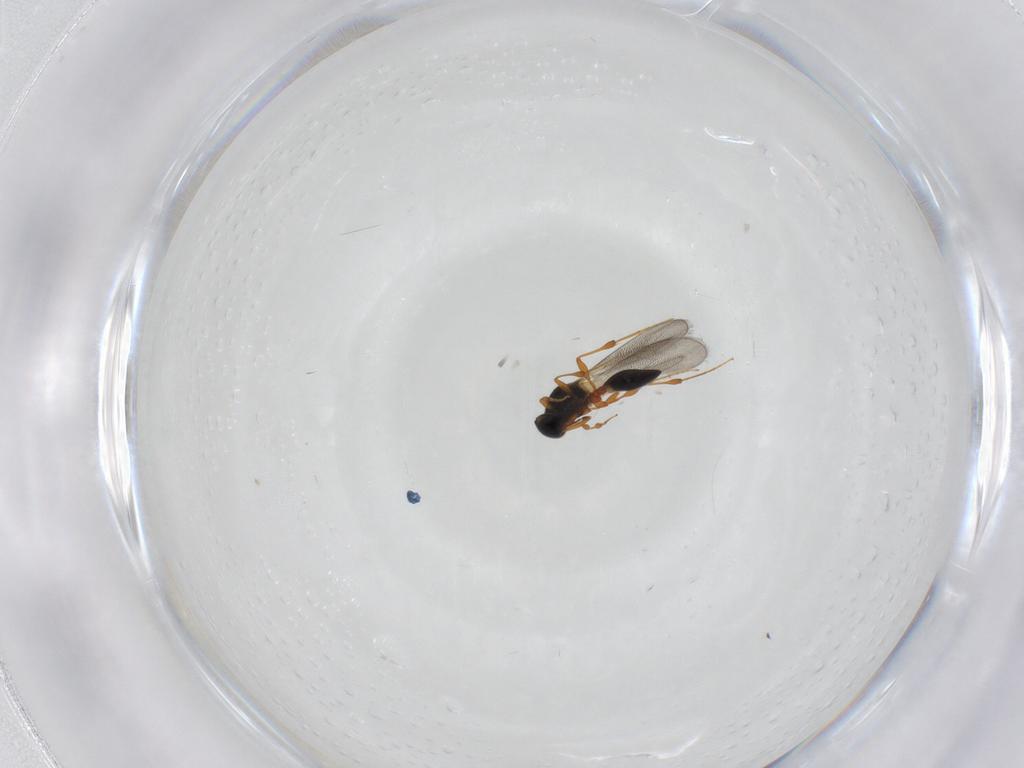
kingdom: Animalia
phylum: Arthropoda
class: Insecta
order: Hymenoptera
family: Platygastridae
